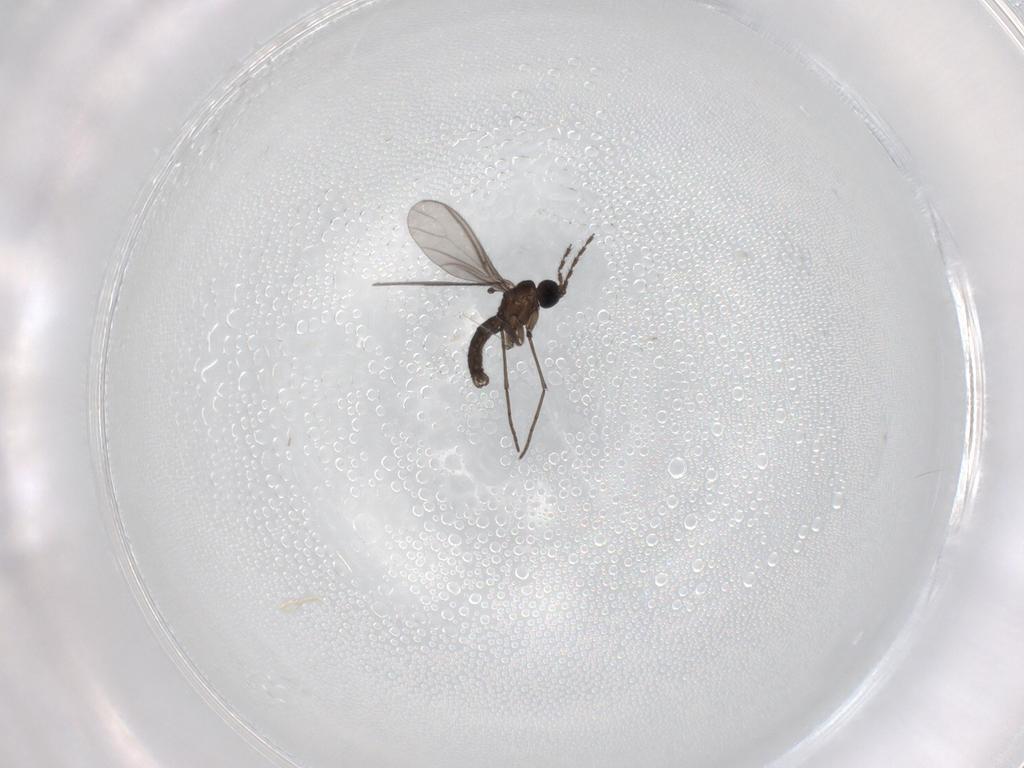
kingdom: Animalia
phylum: Arthropoda
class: Insecta
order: Diptera
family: Sciaridae
